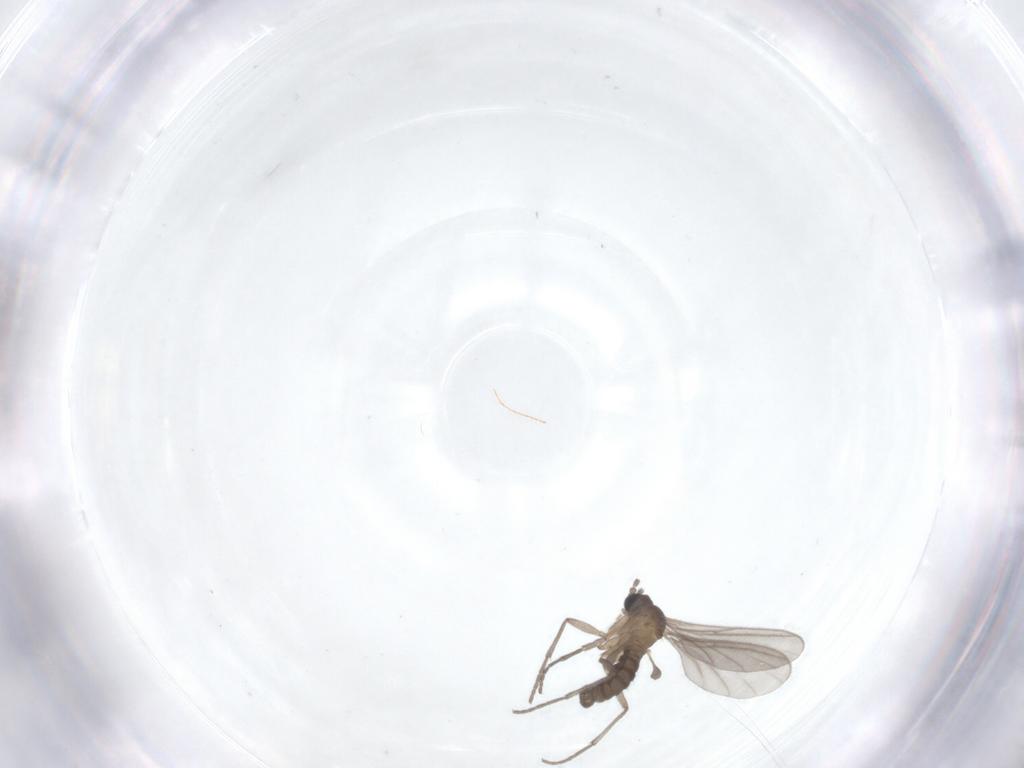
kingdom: Animalia
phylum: Arthropoda
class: Insecta
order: Diptera
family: Sciaridae
